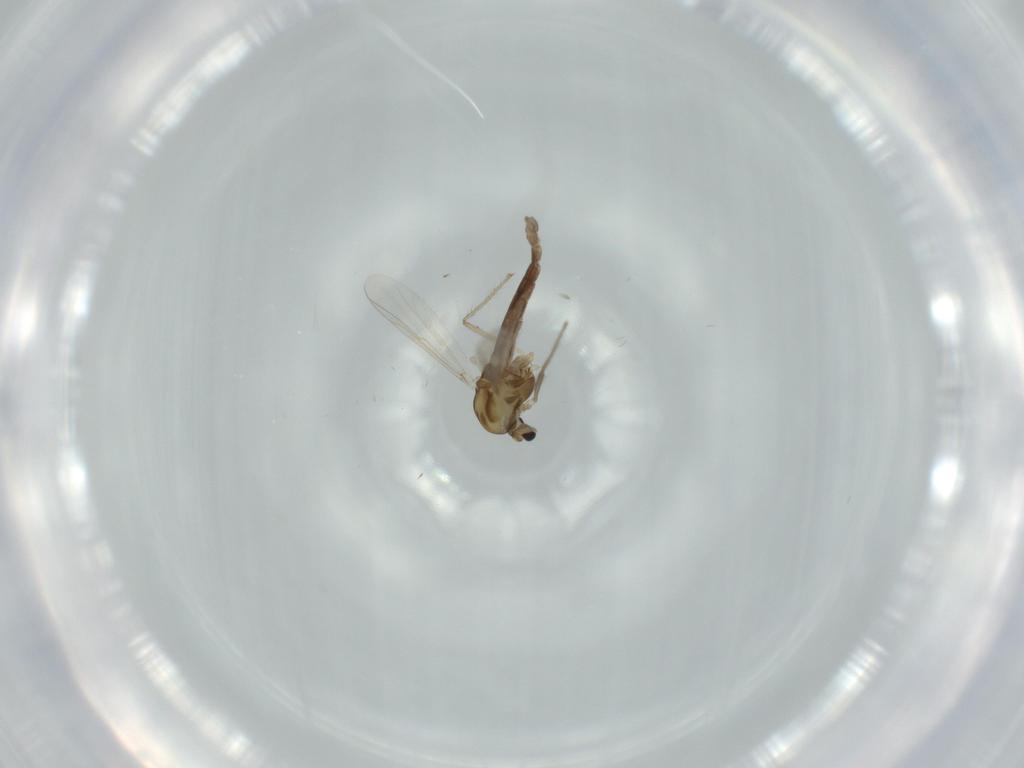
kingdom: Animalia
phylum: Arthropoda
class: Insecta
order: Diptera
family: Chironomidae
